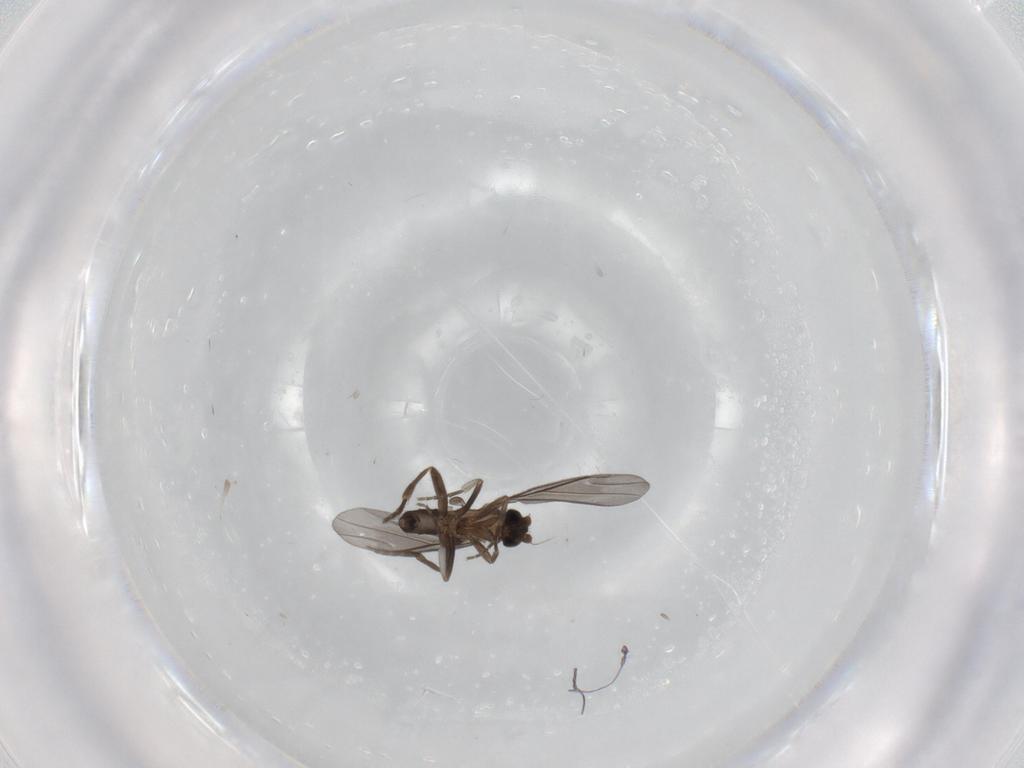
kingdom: Animalia
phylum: Arthropoda
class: Insecta
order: Diptera
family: Phoridae
